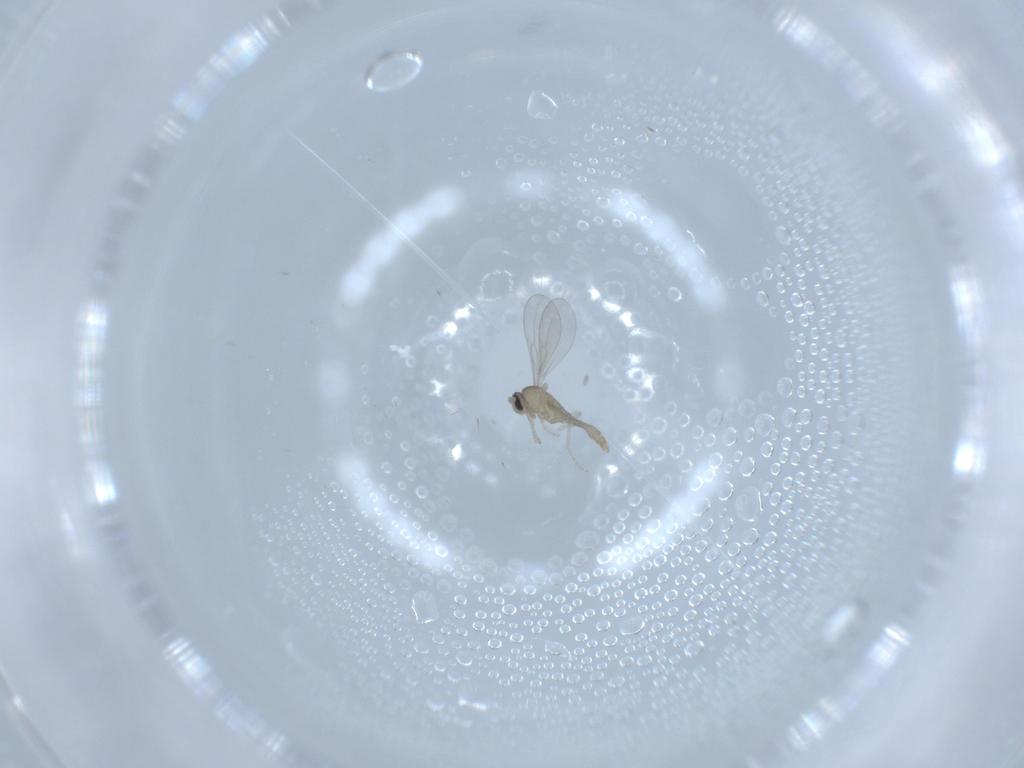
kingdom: Animalia
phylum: Arthropoda
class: Insecta
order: Diptera
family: Cecidomyiidae
